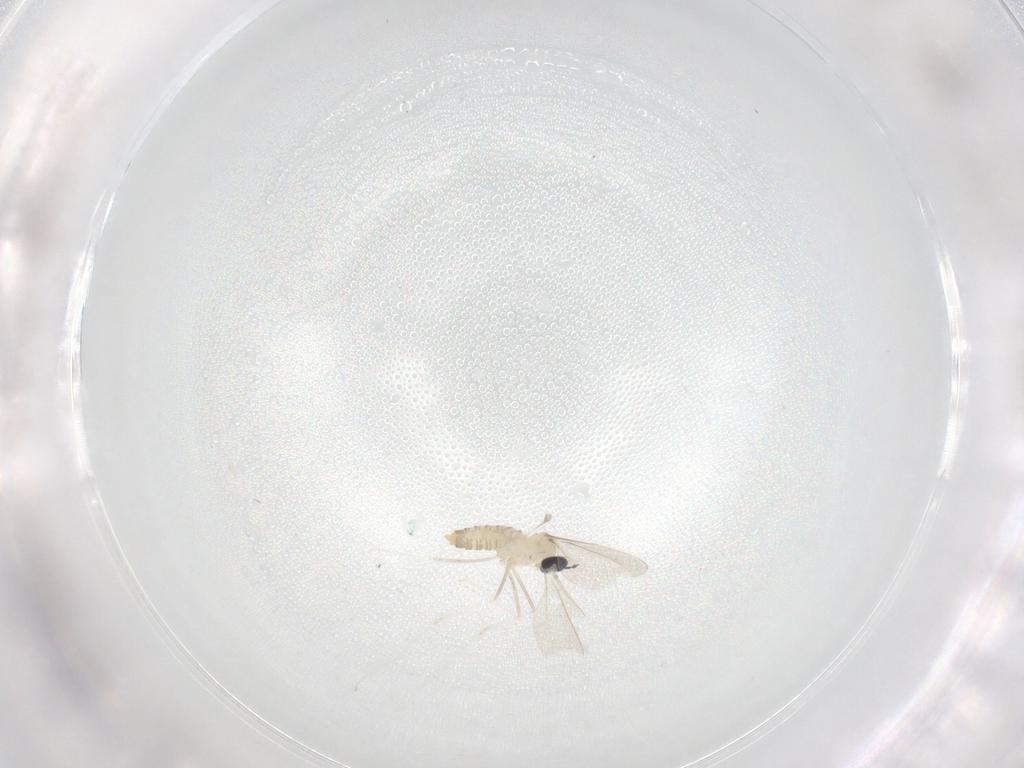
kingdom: Animalia
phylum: Arthropoda
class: Insecta
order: Diptera
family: Cecidomyiidae
